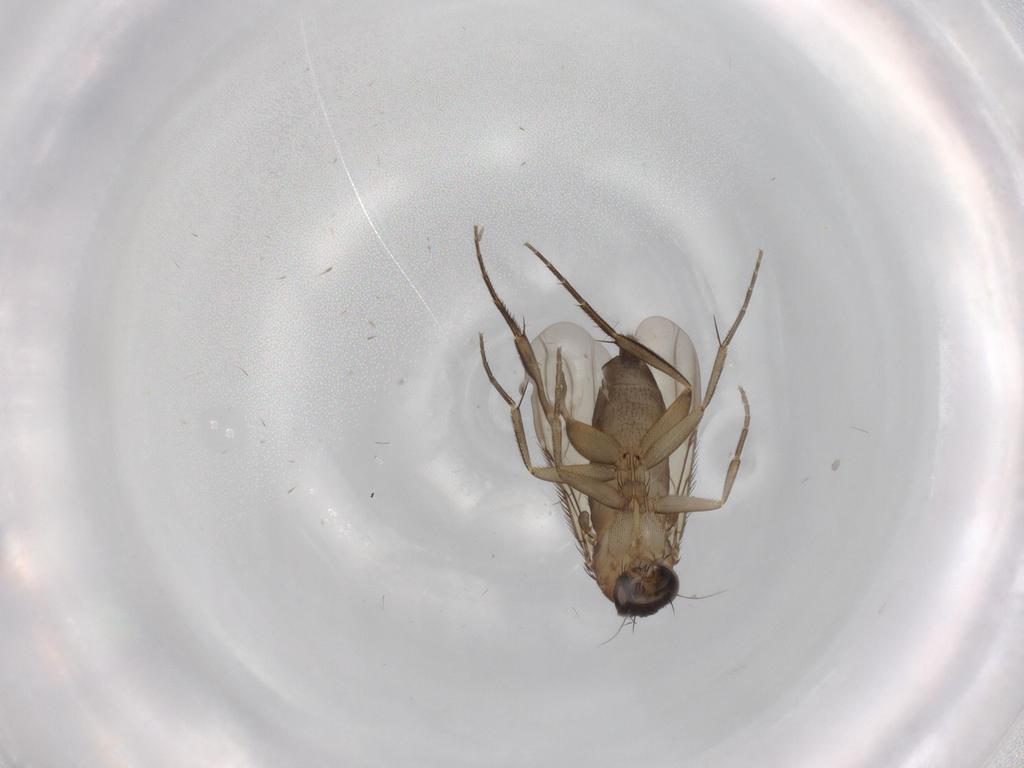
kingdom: Animalia
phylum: Arthropoda
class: Insecta
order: Diptera
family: Phoridae
